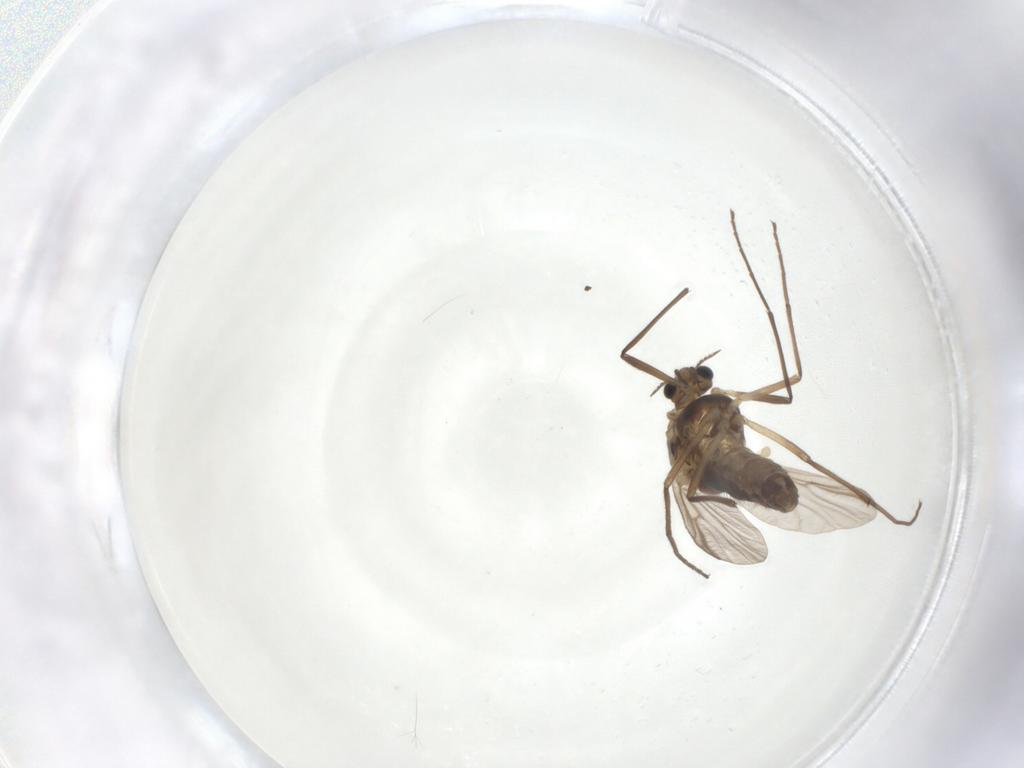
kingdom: Animalia
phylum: Arthropoda
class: Insecta
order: Diptera
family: Chironomidae
